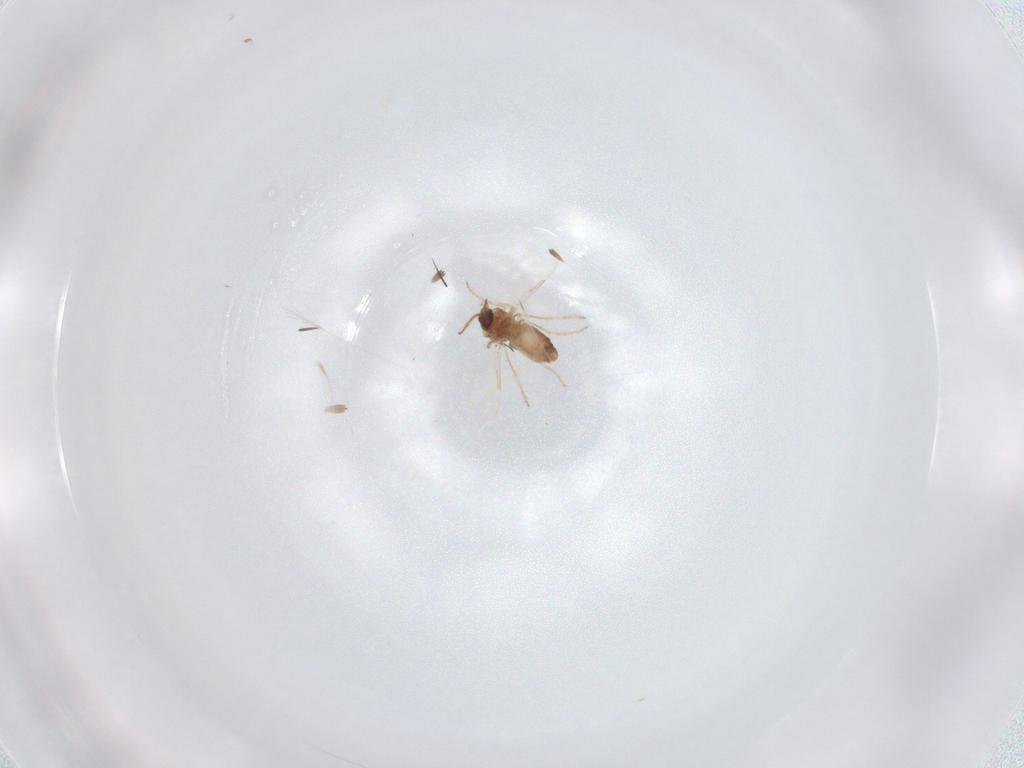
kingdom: Animalia
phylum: Arthropoda
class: Insecta
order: Diptera
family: Ceratopogonidae
